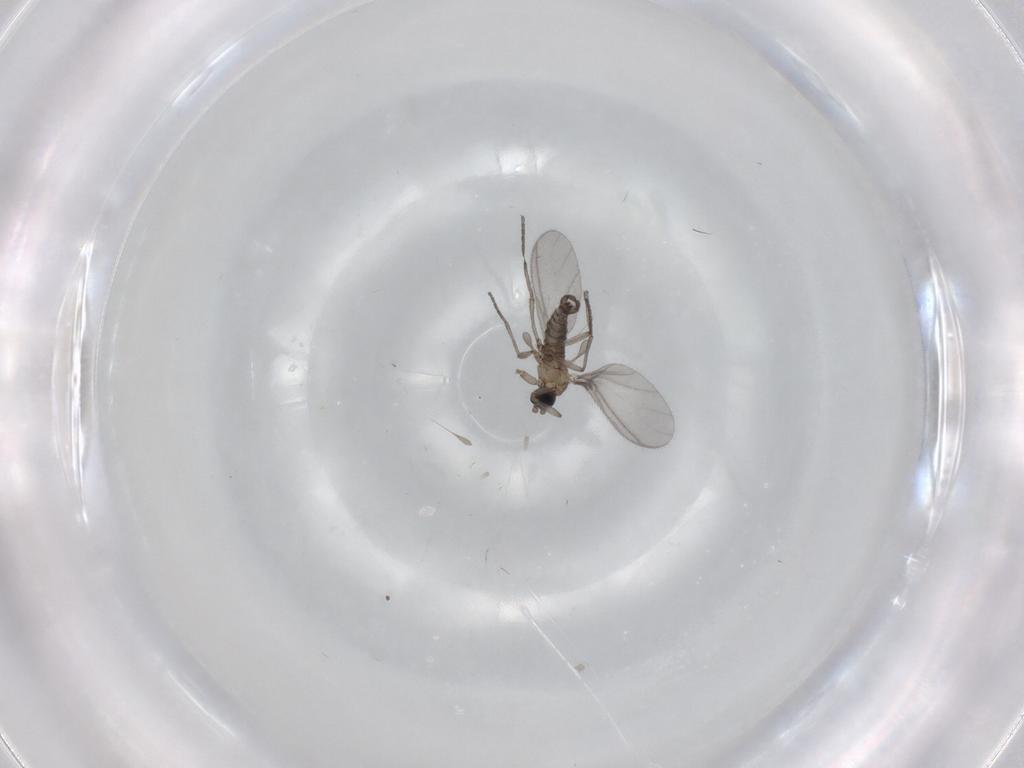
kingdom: Animalia
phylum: Arthropoda
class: Insecta
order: Diptera
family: Sciaridae
